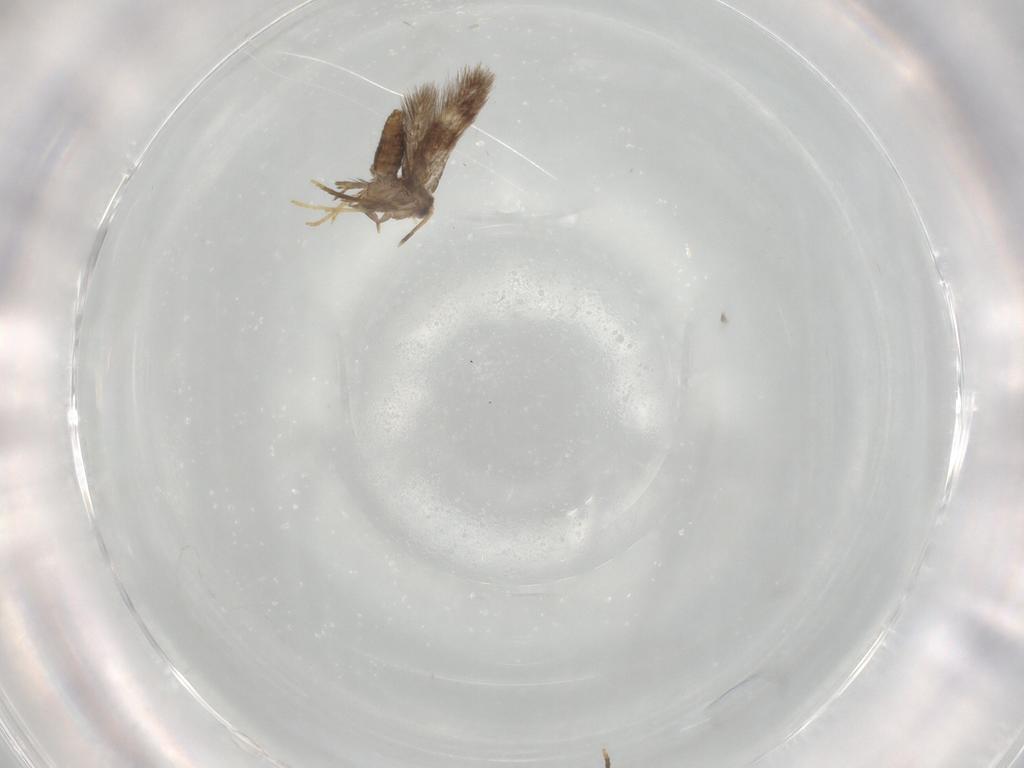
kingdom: Animalia
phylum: Arthropoda
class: Insecta
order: Lepidoptera
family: Nepticulidae
